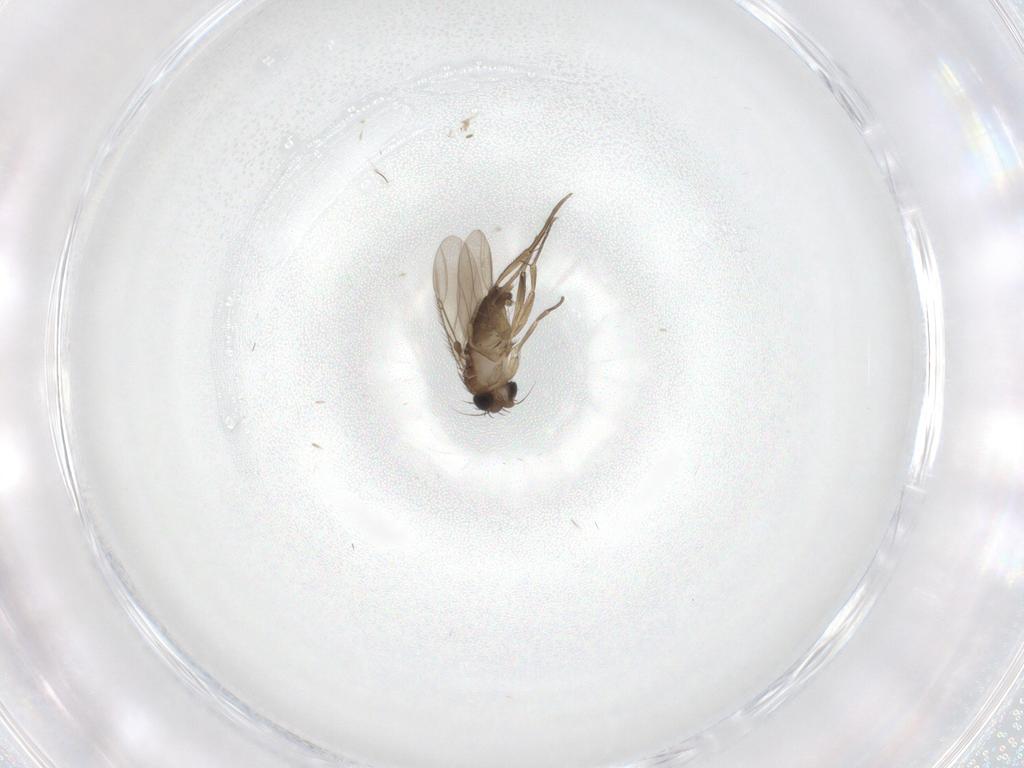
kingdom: Animalia
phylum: Arthropoda
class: Insecta
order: Diptera
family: Phoridae
